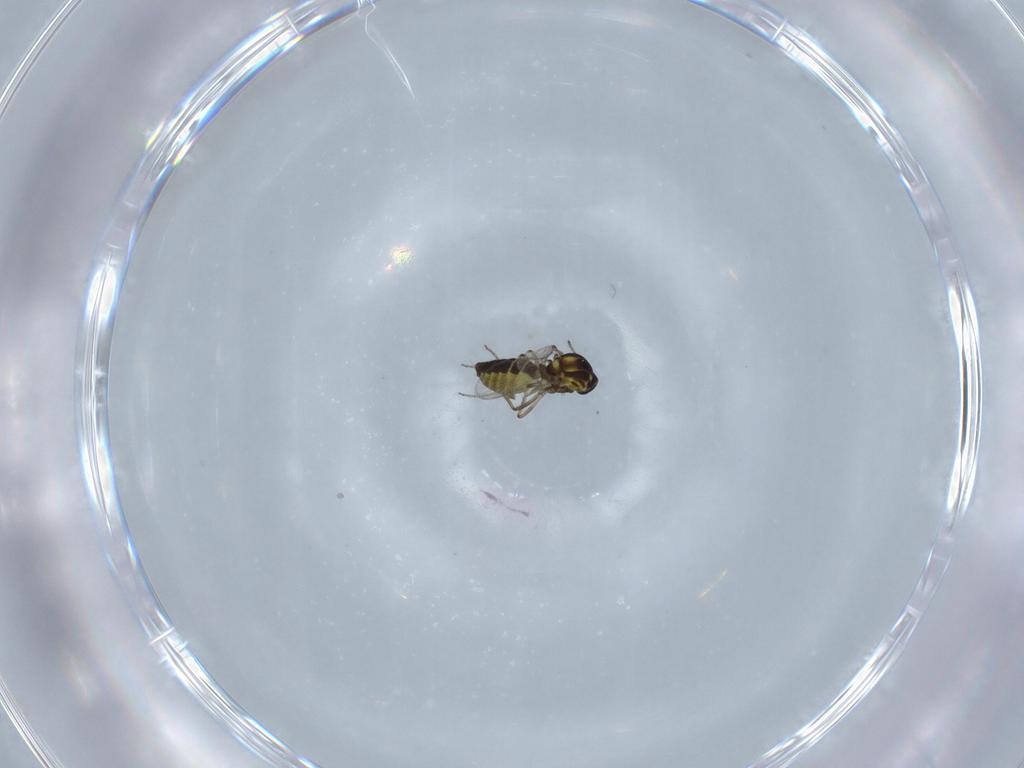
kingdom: Animalia
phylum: Arthropoda
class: Insecta
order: Diptera
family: Ceratopogonidae
